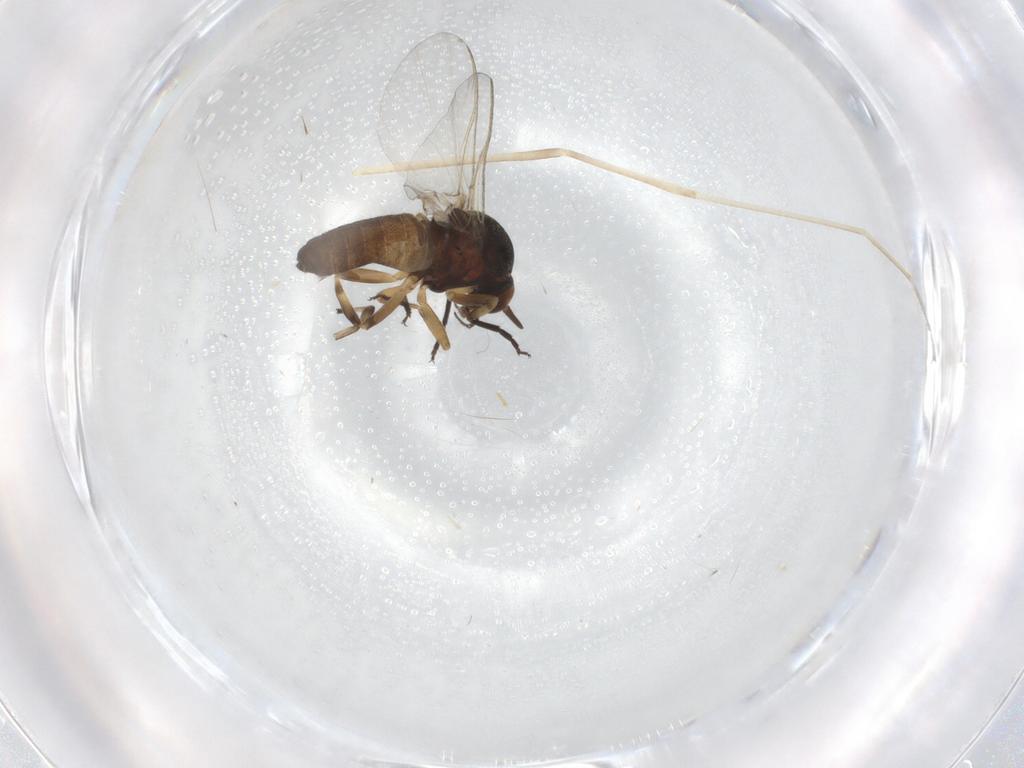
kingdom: Animalia
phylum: Arthropoda
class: Insecta
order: Diptera
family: Simuliidae
